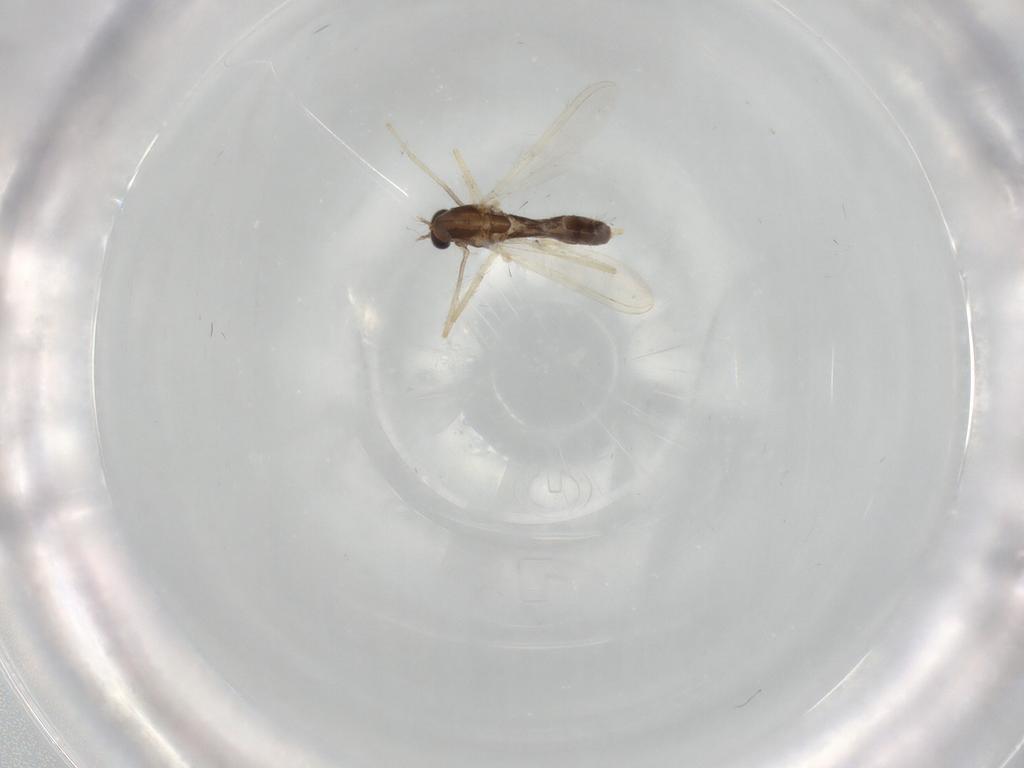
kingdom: Animalia
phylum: Arthropoda
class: Insecta
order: Diptera
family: Chironomidae
